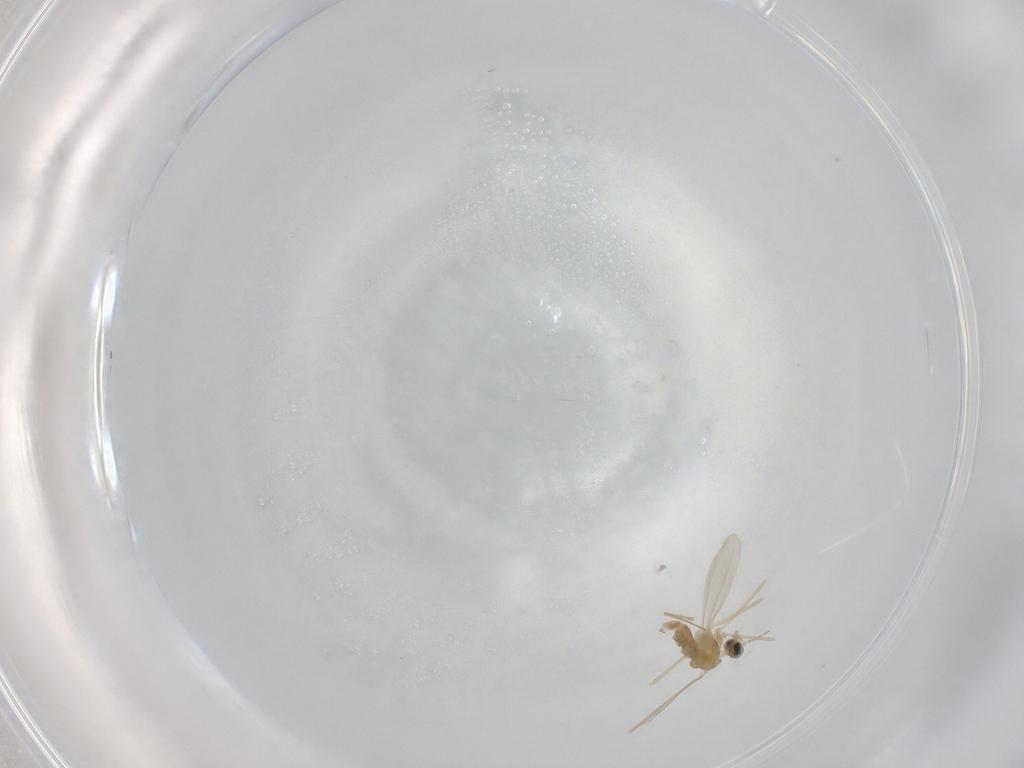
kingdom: Animalia
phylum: Arthropoda
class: Insecta
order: Diptera
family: Cecidomyiidae
